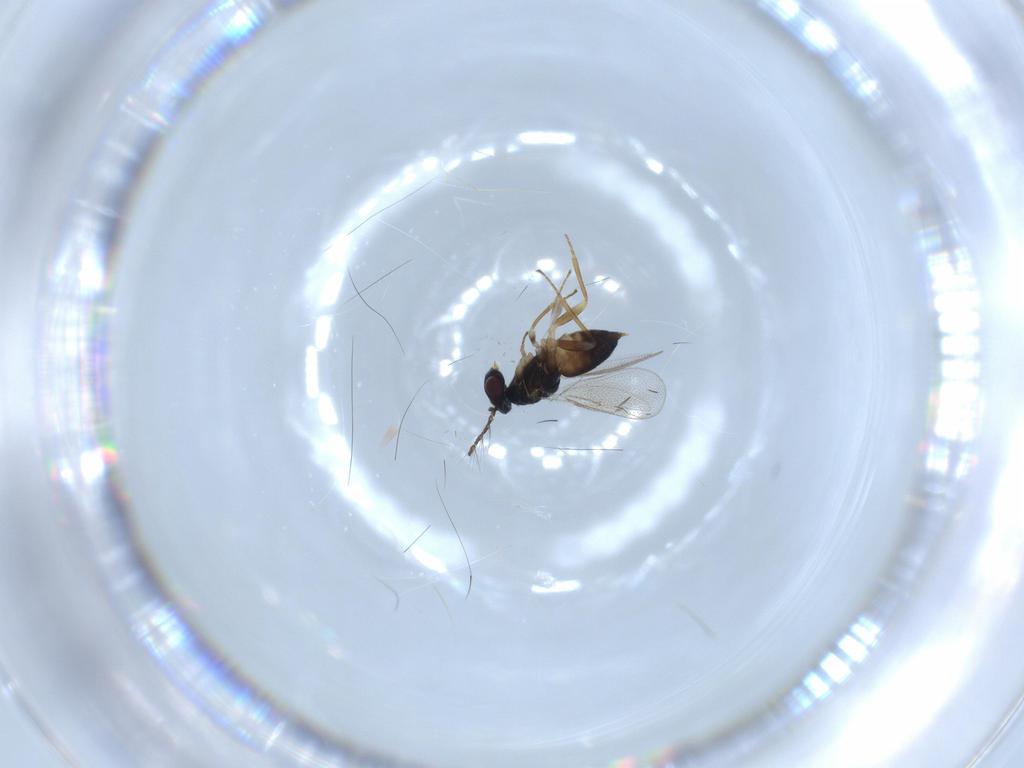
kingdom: Animalia
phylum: Arthropoda
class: Insecta
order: Hymenoptera
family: Eulophidae
